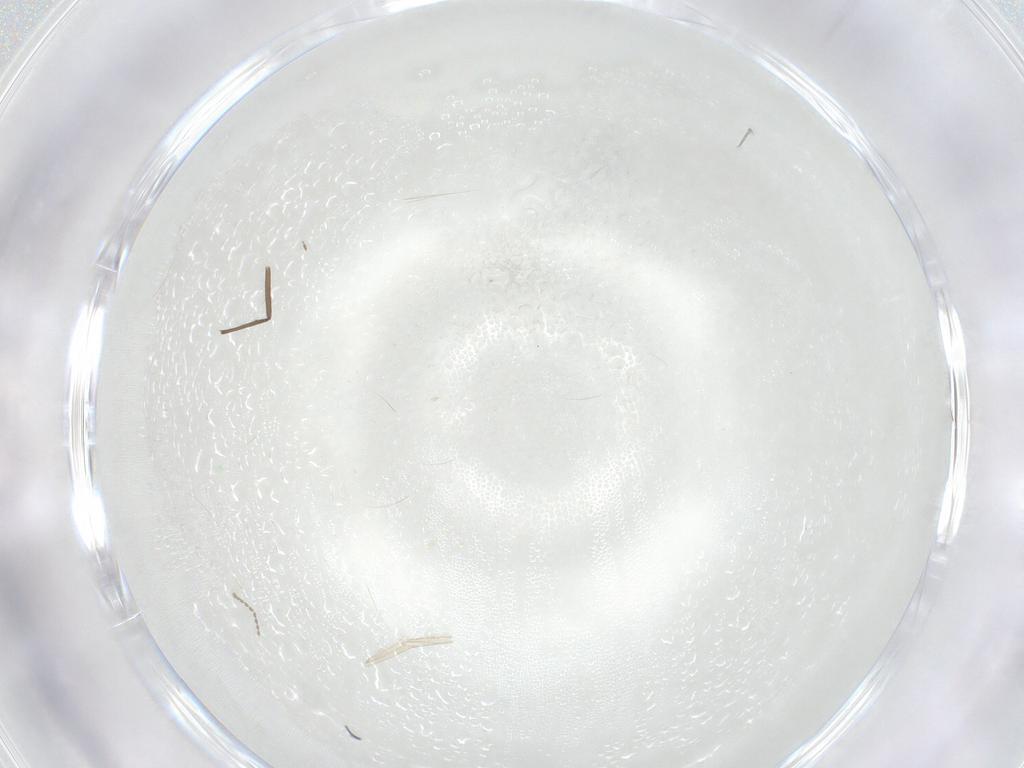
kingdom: Animalia
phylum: Arthropoda
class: Insecta
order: Diptera
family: Cecidomyiidae
